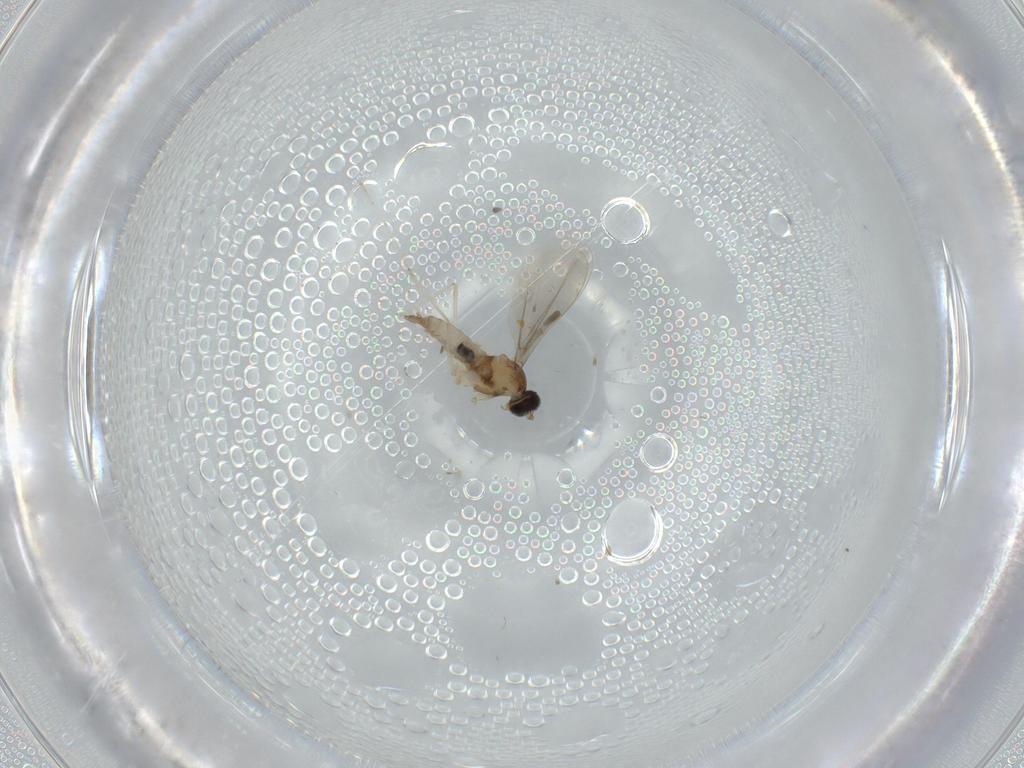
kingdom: Animalia
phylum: Arthropoda
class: Insecta
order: Diptera
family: Cecidomyiidae
